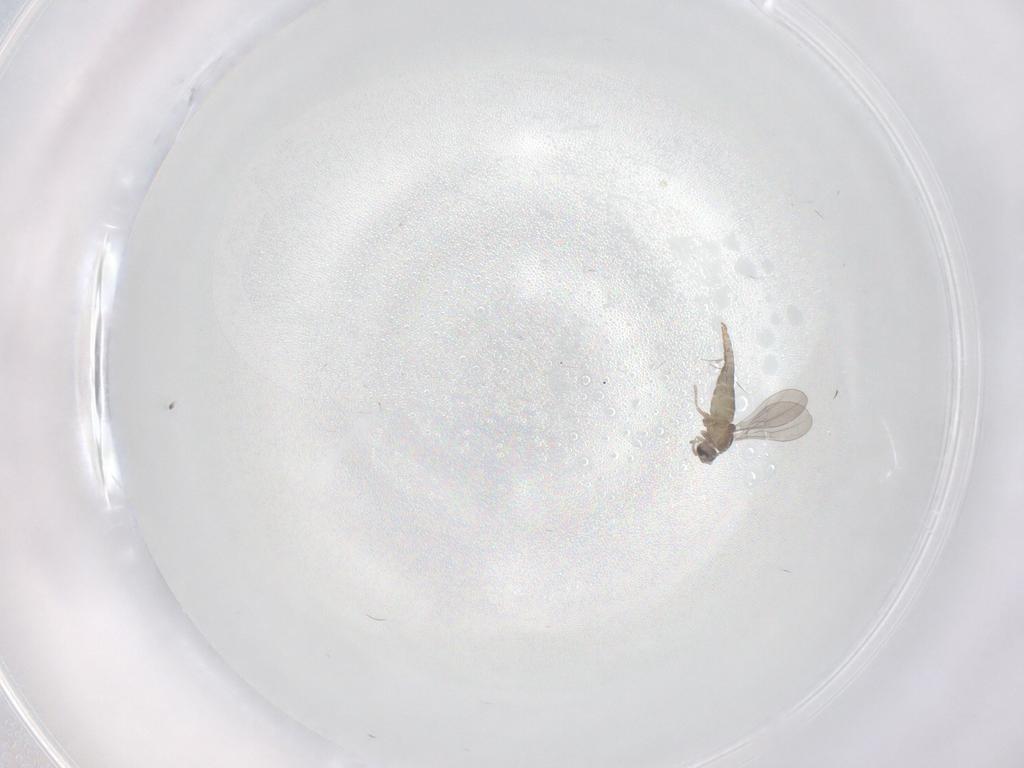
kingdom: Animalia
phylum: Arthropoda
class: Insecta
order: Diptera
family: Cecidomyiidae
